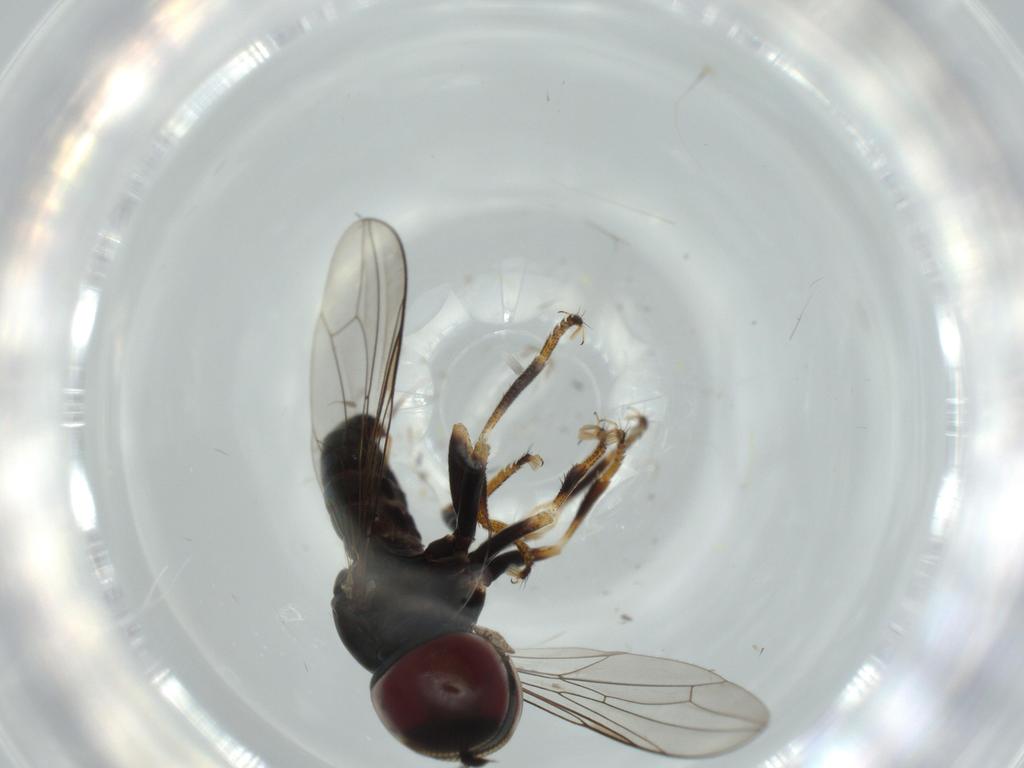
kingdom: Animalia
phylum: Arthropoda
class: Insecta
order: Diptera
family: Pipunculidae
